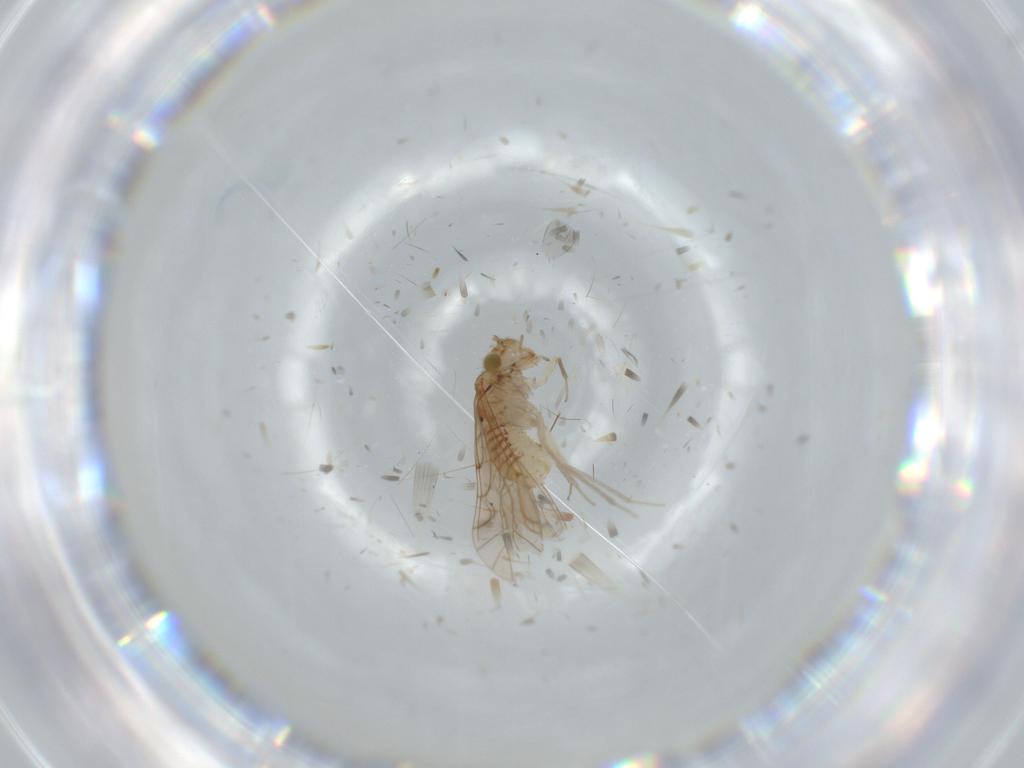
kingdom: Animalia
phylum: Arthropoda
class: Insecta
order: Psocodea
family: Lachesillidae
